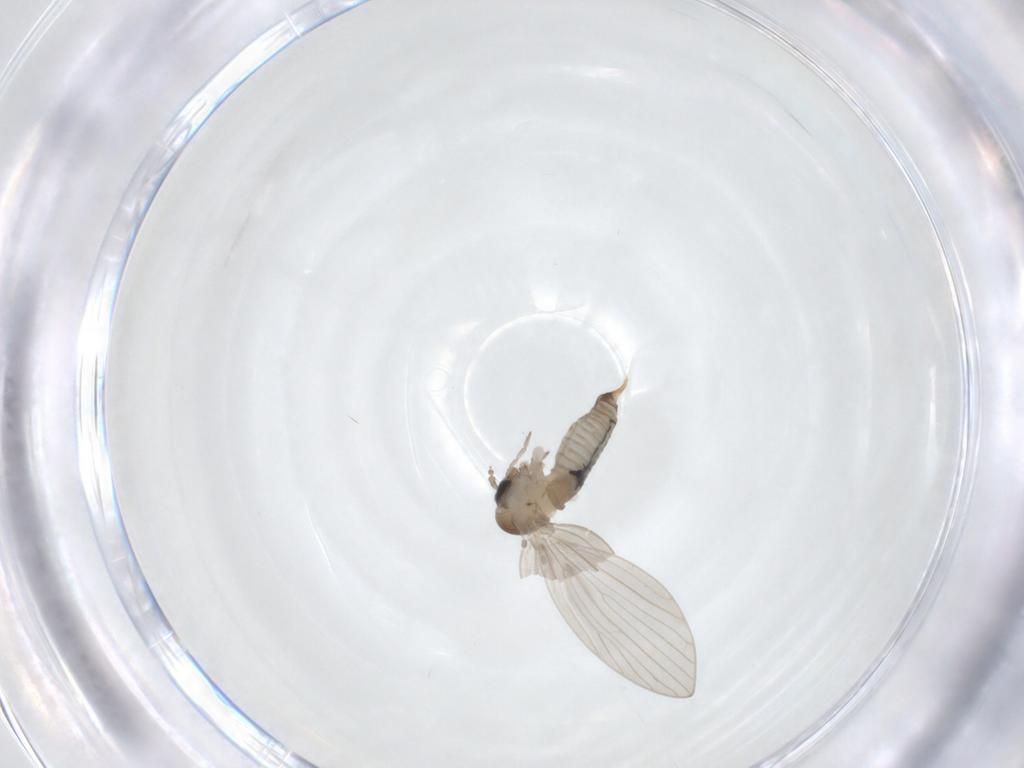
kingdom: Animalia
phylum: Arthropoda
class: Insecta
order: Diptera
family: Psychodidae
